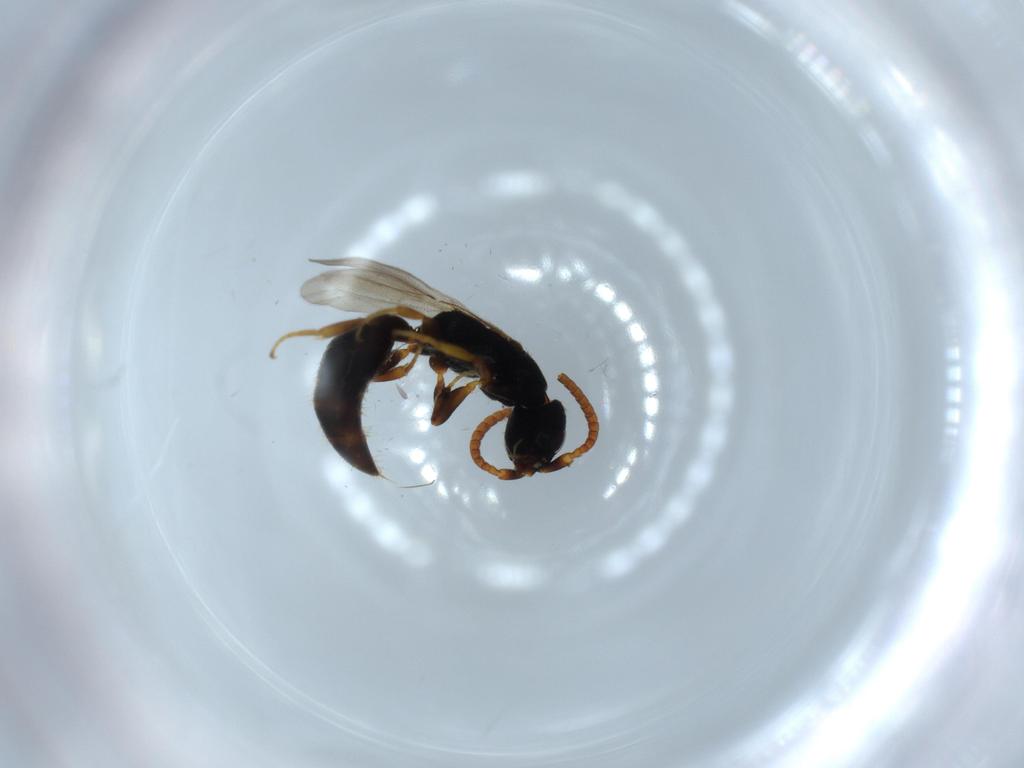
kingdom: Animalia
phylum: Arthropoda
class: Insecta
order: Hymenoptera
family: Bethylidae
